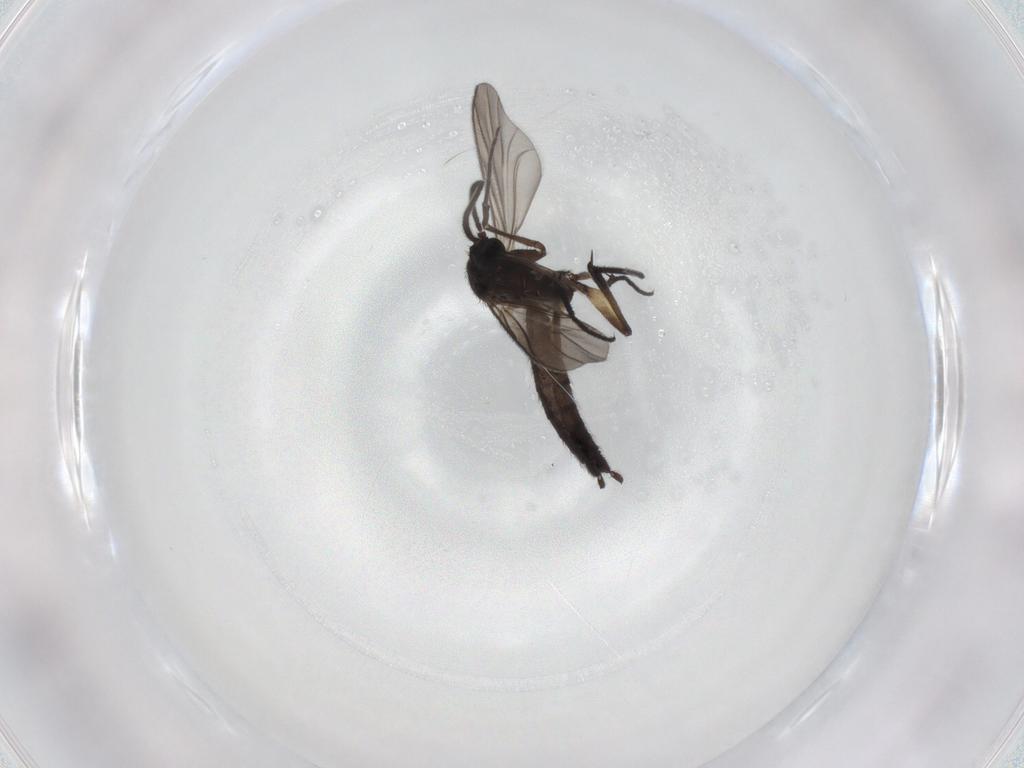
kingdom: Animalia
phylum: Arthropoda
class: Insecta
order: Diptera
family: Keroplatidae
